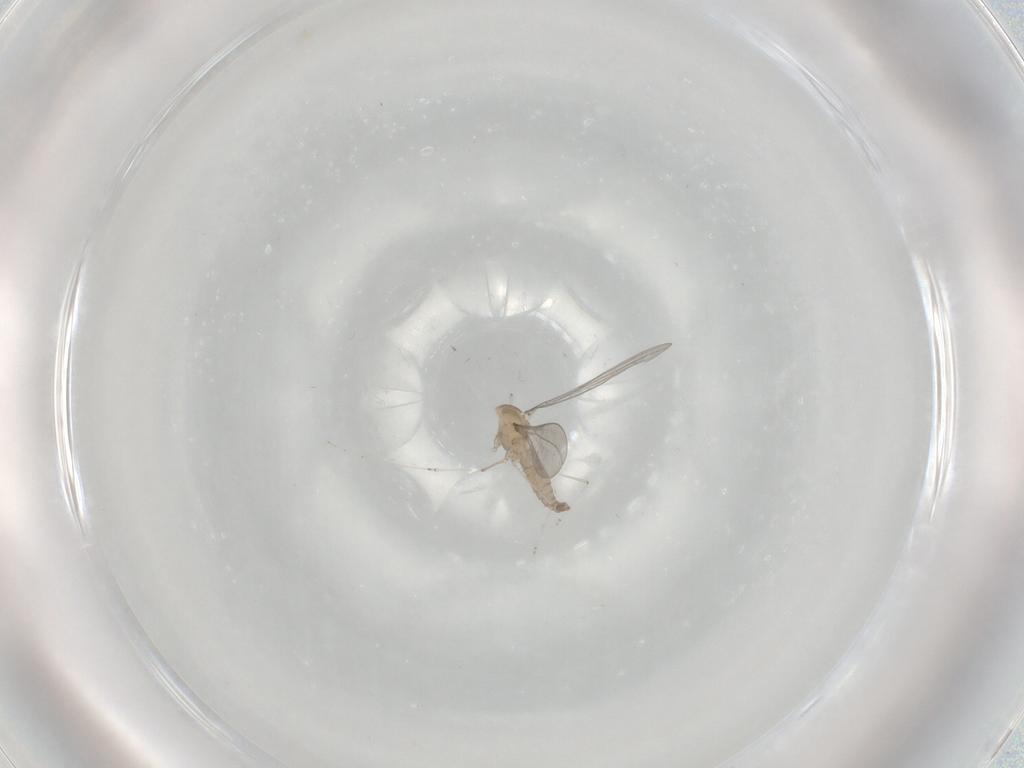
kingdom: Animalia
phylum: Arthropoda
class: Insecta
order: Diptera
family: Cecidomyiidae
